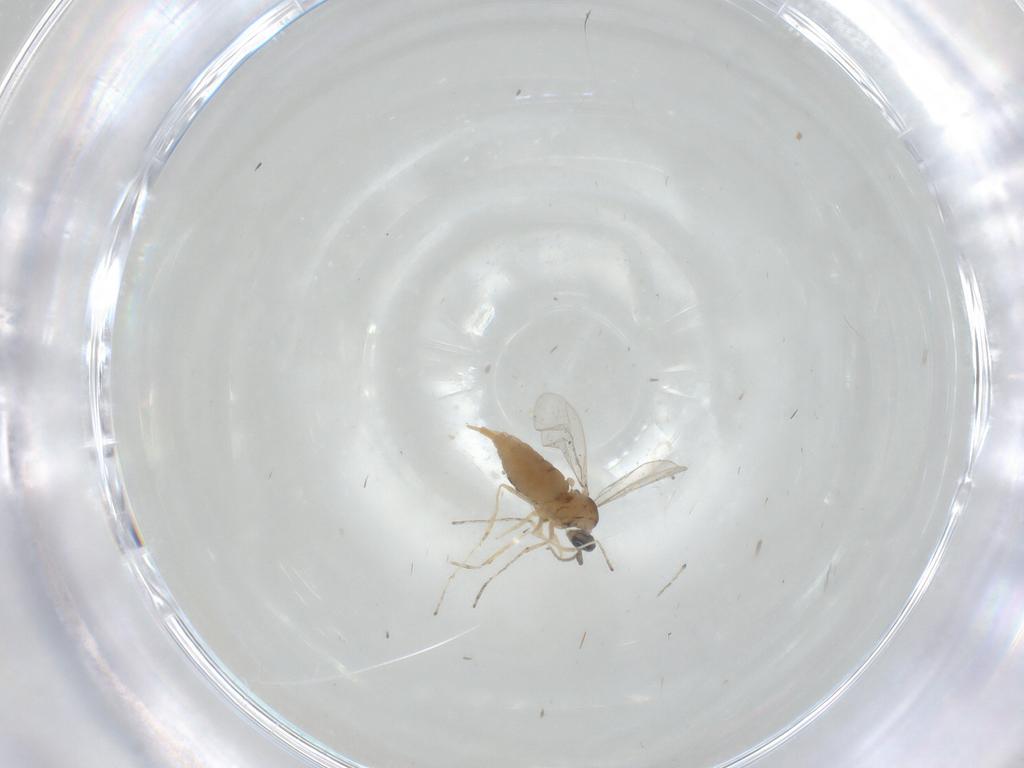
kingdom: Animalia
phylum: Arthropoda
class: Insecta
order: Diptera
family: Cecidomyiidae
